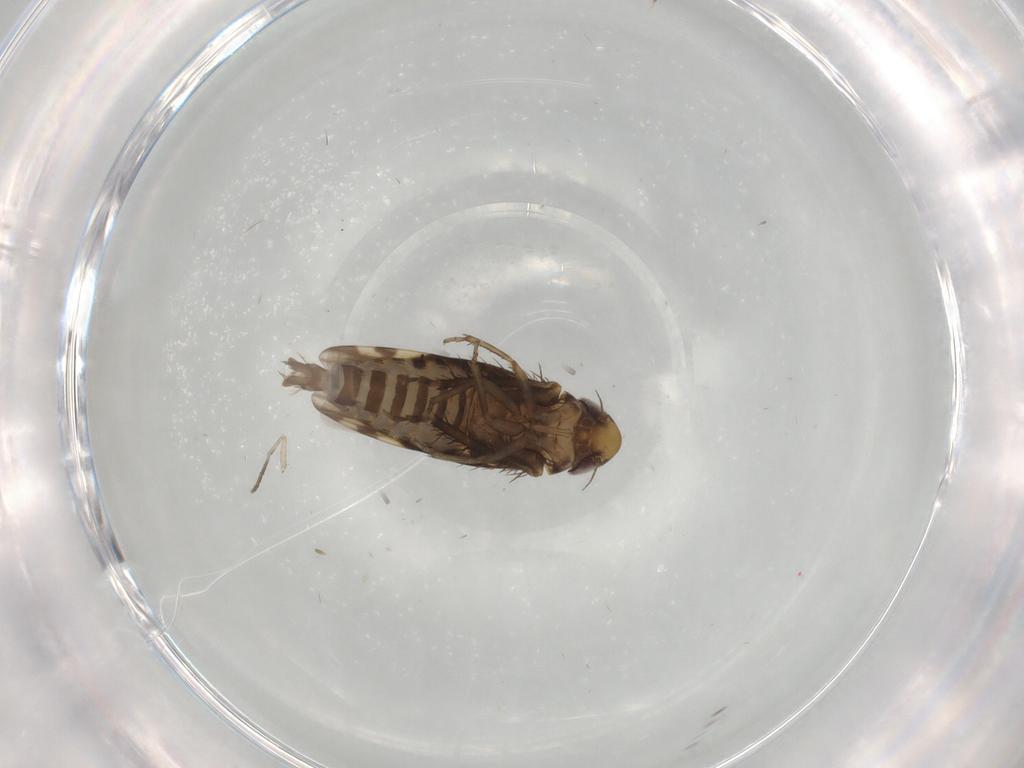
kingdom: Animalia
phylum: Arthropoda
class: Insecta
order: Hemiptera
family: Cicadellidae
